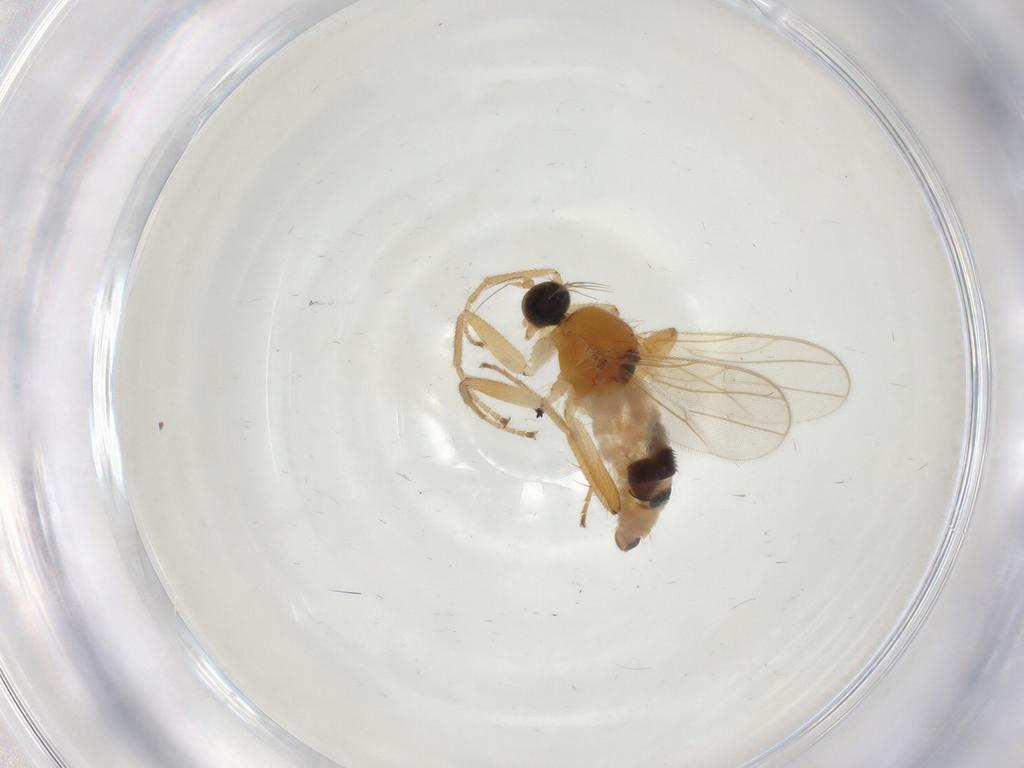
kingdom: Animalia
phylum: Arthropoda
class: Insecta
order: Diptera
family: Hybotidae
